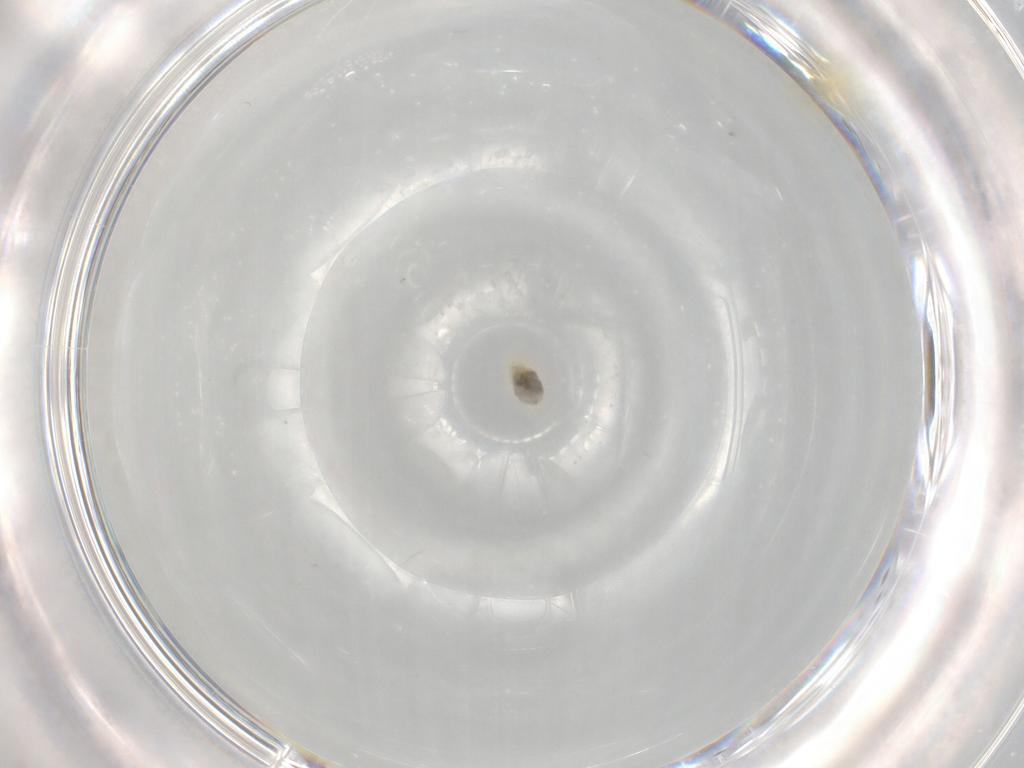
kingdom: Animalia
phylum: Arthropoda
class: Insecta
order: Hemiptera
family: Aleyrodidae
